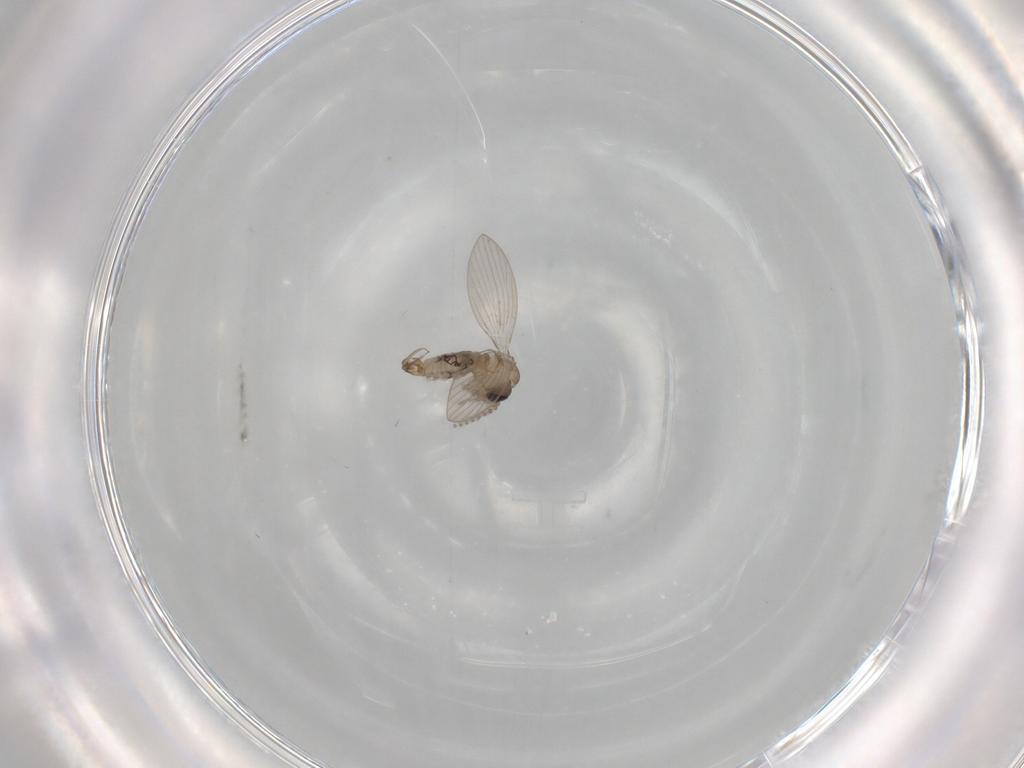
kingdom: Animalia
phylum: Arthropoda
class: Insecta
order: Diptera
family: Psychodidae
